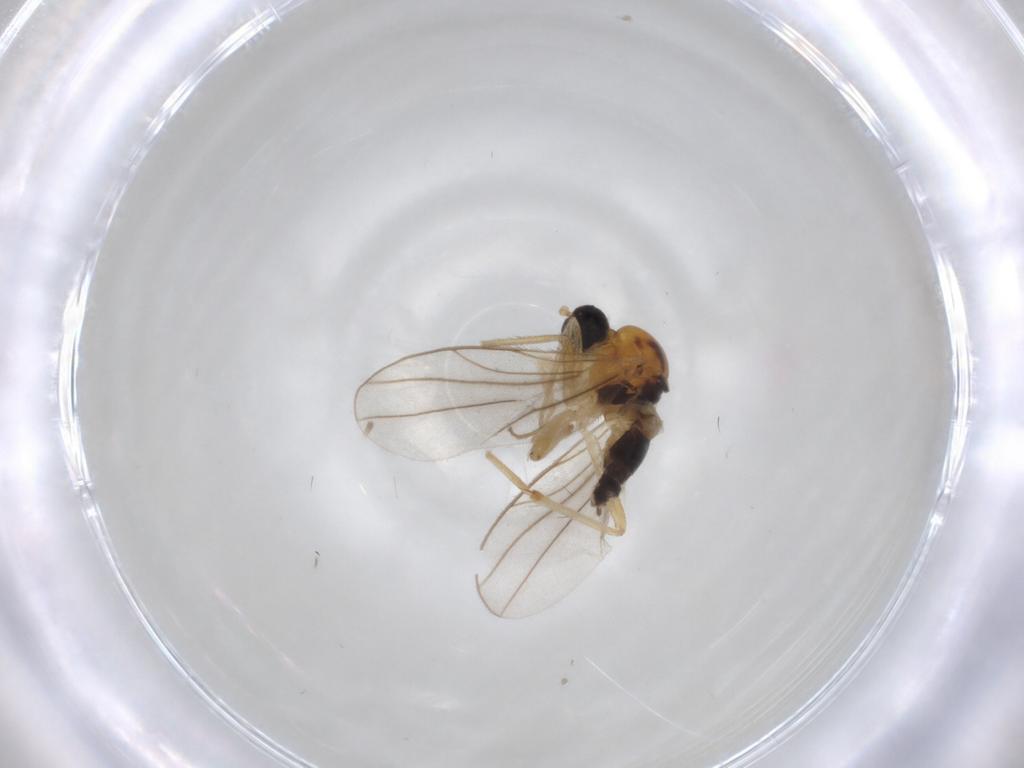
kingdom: Animalia
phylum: Arthropoda
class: Insecta
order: Diptera
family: Hybotidae
